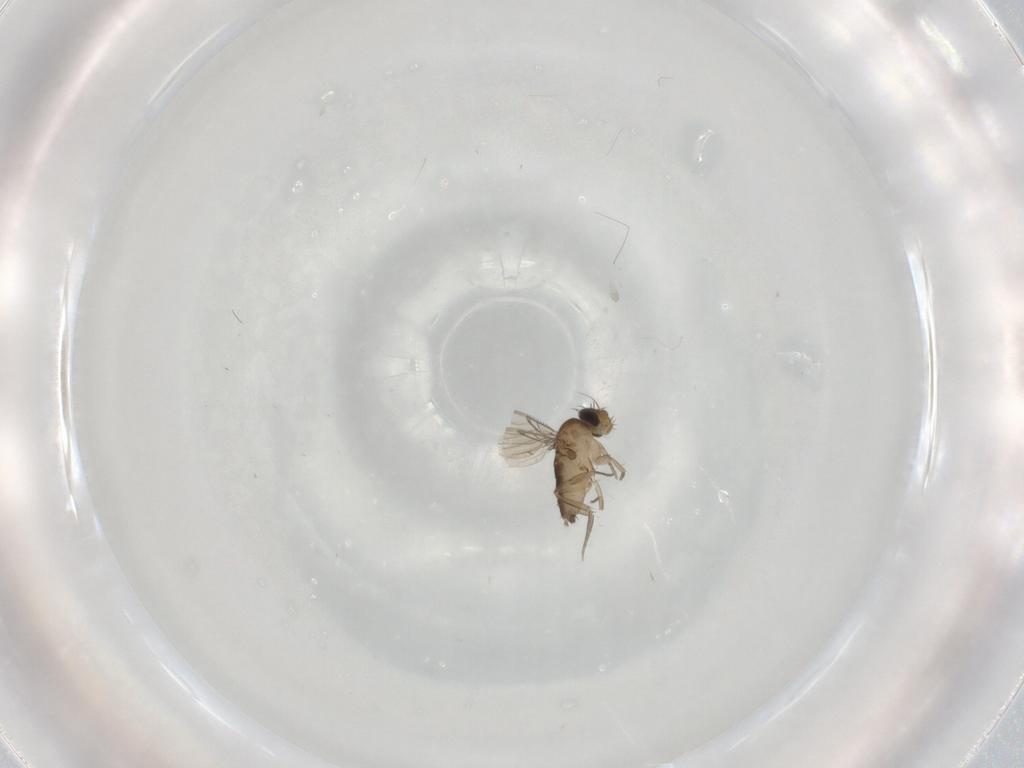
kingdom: Animalia
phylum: Arthropoda
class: Insecta
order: Diptera
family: Phoridae
